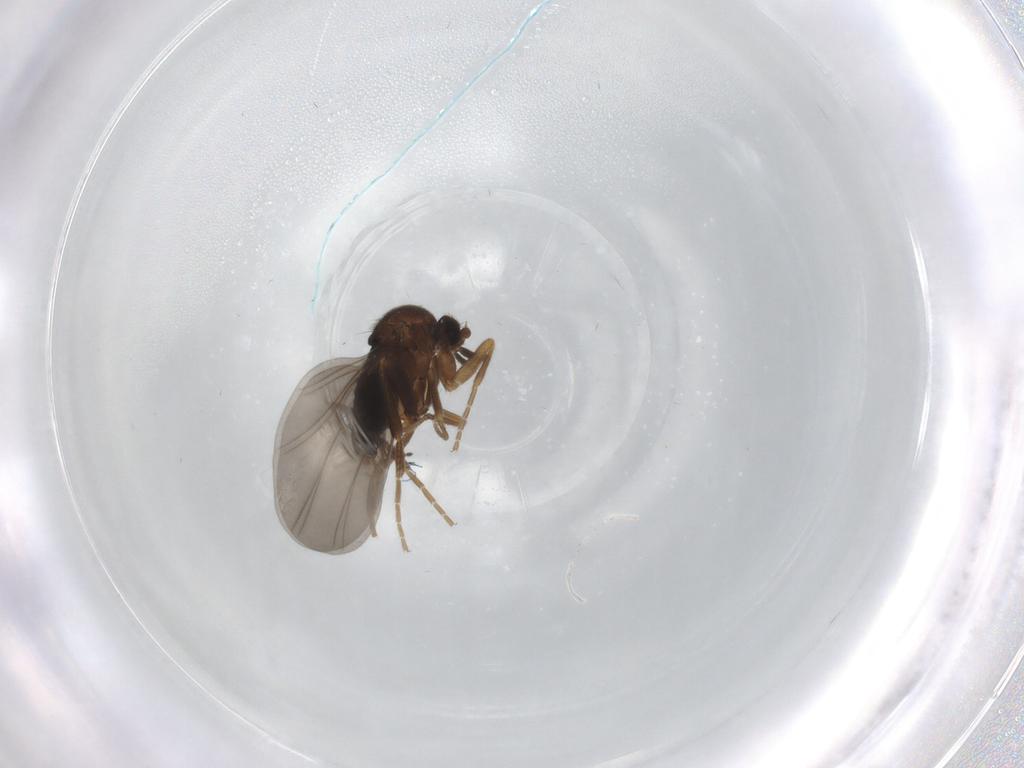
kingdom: Animalia
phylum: Arthropoda
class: Insecta
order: Diptera
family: Phoridae
